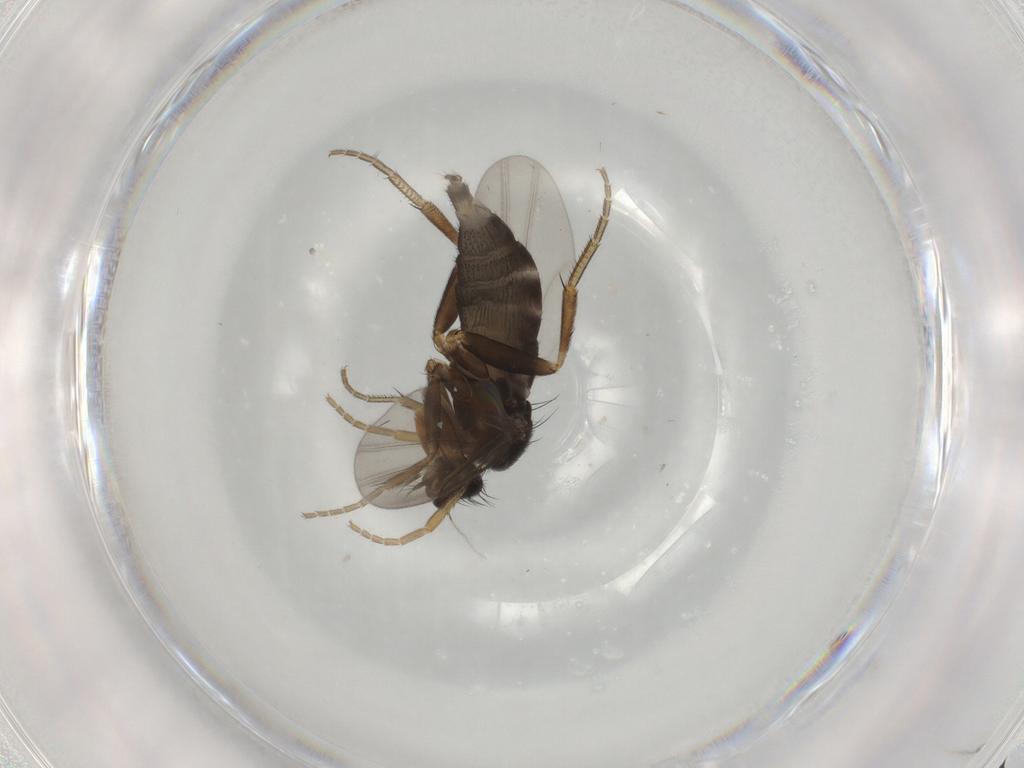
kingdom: Animalia
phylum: Arthropoda
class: Insecta
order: Diptera
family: Phoridae
